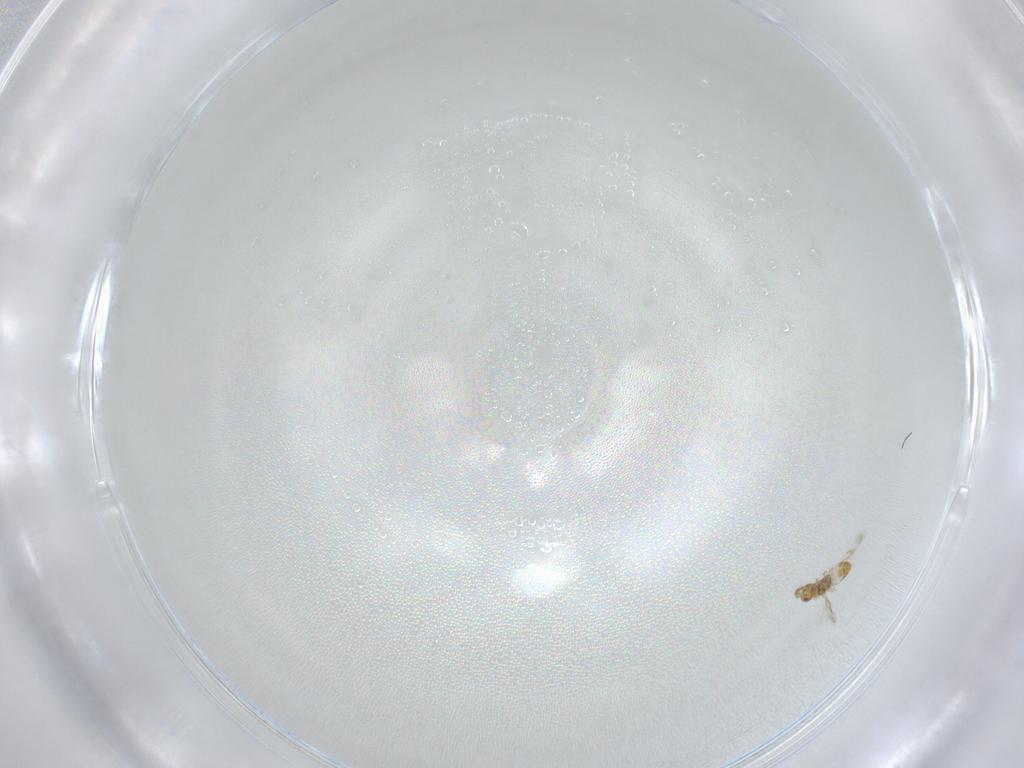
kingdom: Animalia
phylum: Arthropoda
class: Insecta
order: Hymenoptera
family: Eulophidae
